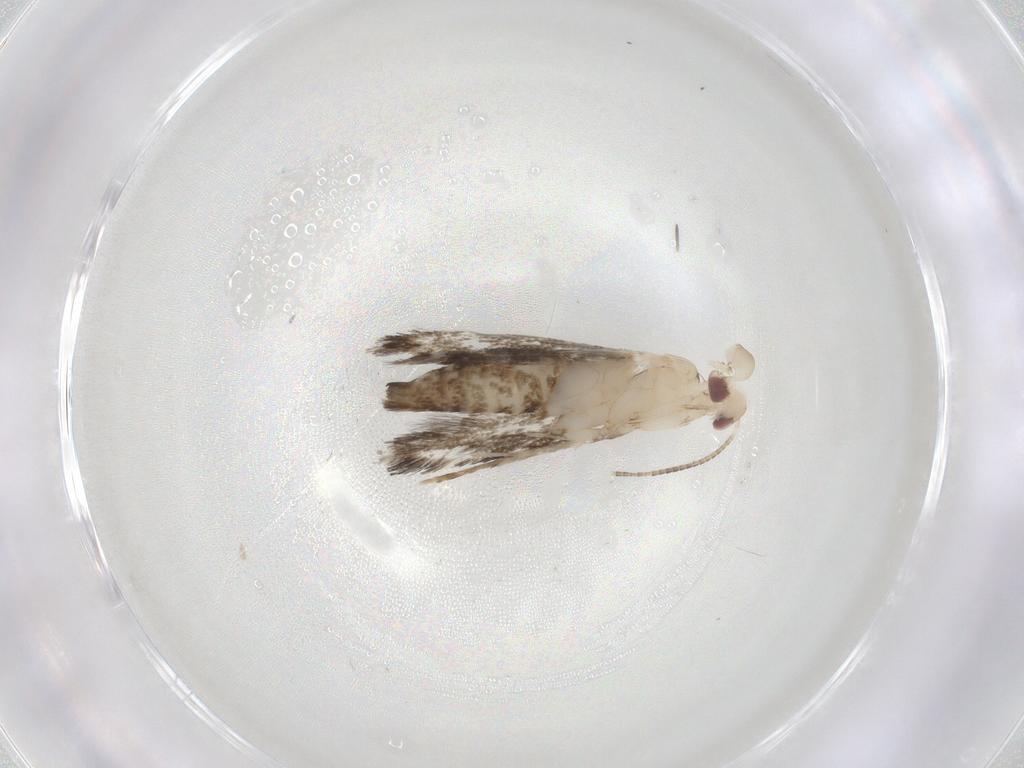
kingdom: Animalia
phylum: Arthropoda
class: Insecta
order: Lepidoptera
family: Gracillariidae
